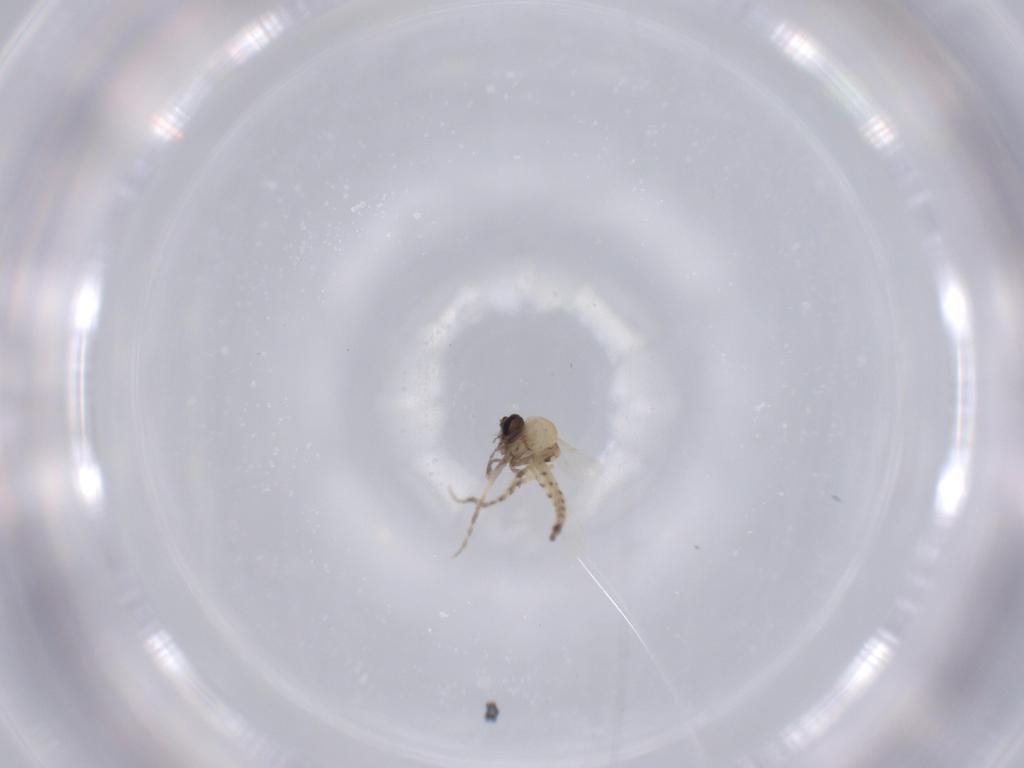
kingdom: Animalia
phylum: Arthropoda
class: Insecta
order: Diptera
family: Ceratopogonidae
